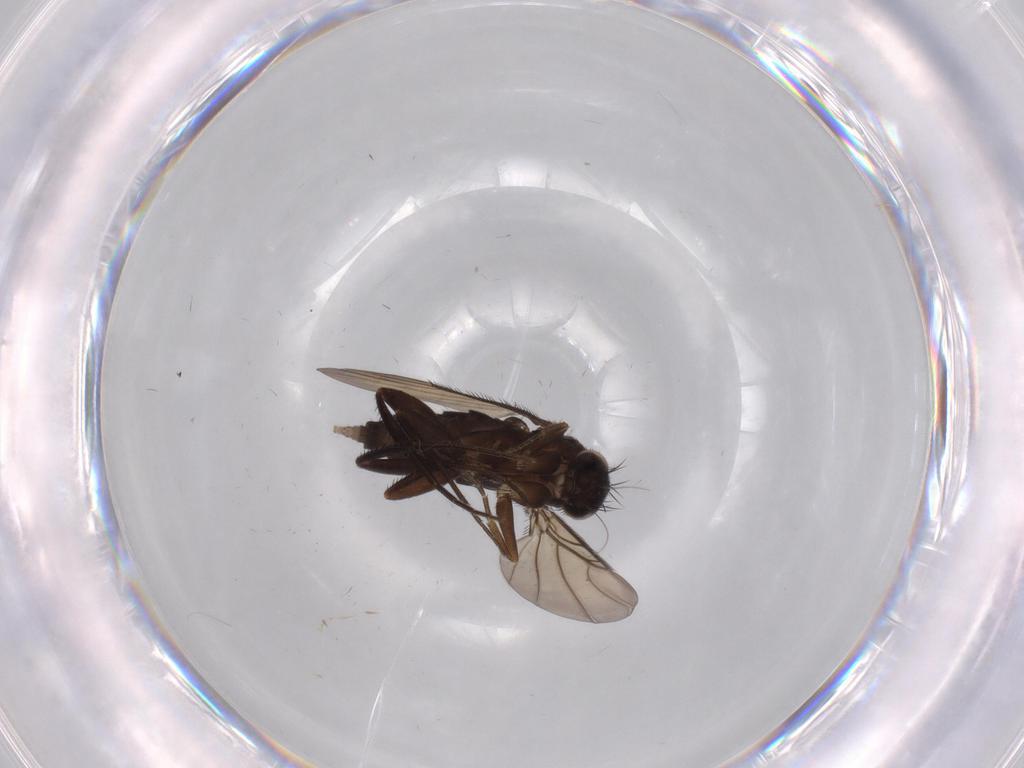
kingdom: Animalia
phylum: Arthropoda
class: Insecta
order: Diptera
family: Phoridae
